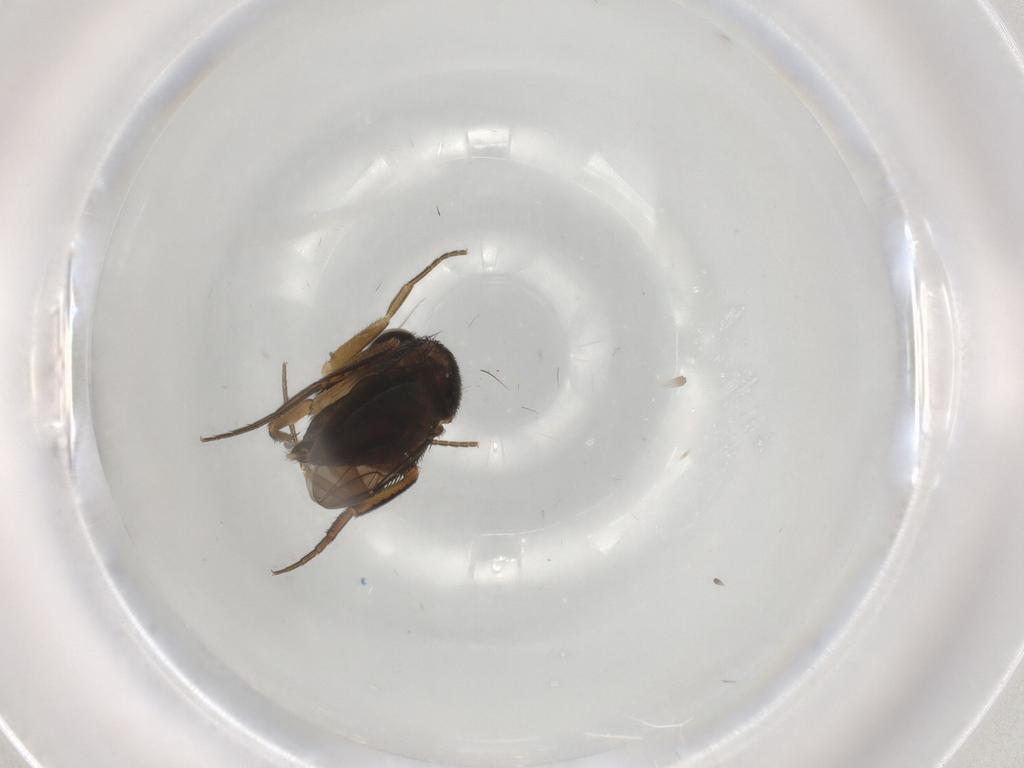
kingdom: Animalia
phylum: Arthropoda
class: Insecta
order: Diptera
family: Phoridae
